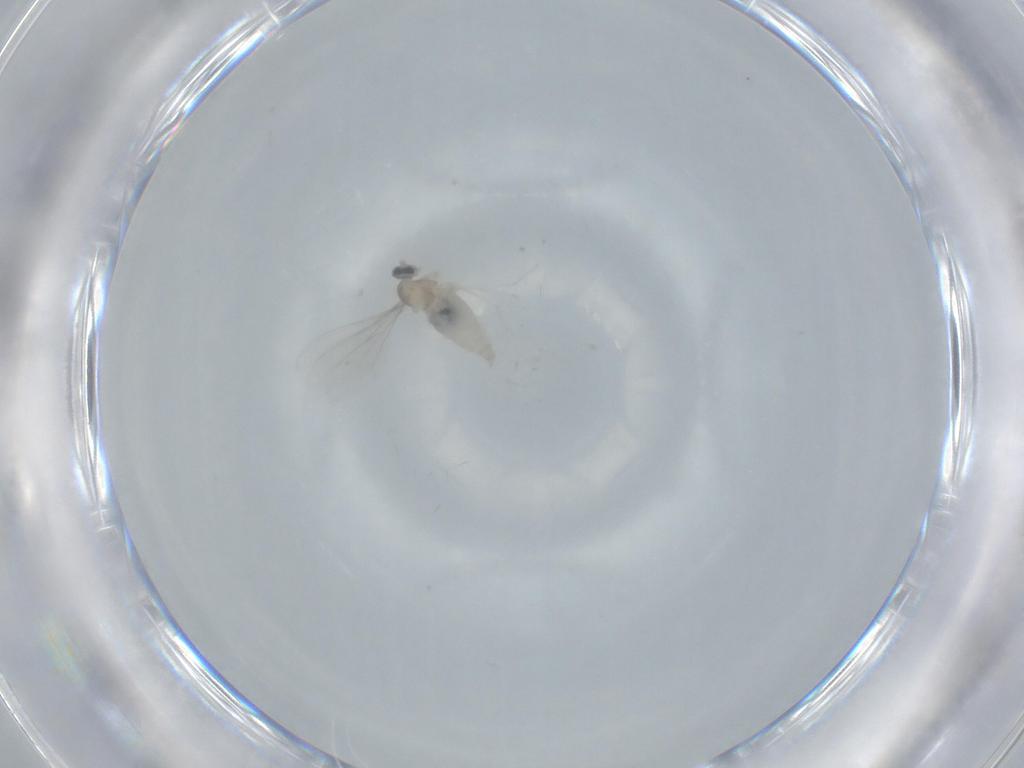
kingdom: Animalia
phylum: Arthropoda
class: Insecta
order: Diptera
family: Cecidomyiidae
